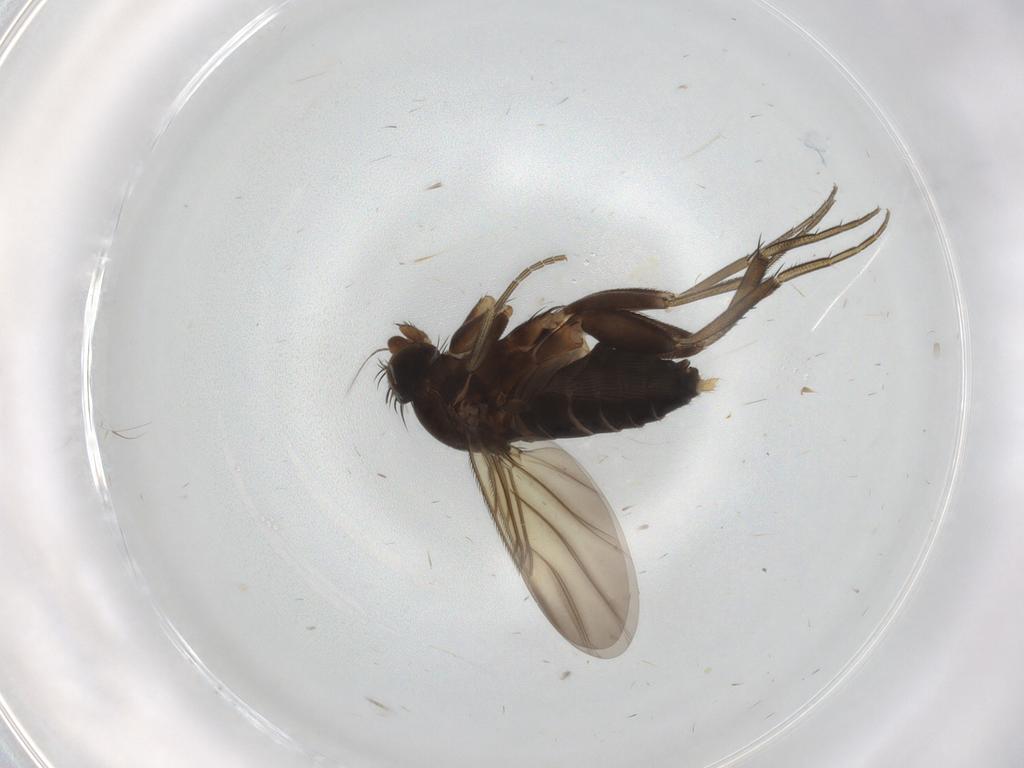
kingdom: Animalia
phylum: Arthropoda
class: Insecta
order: Diptera
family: Phoridae
